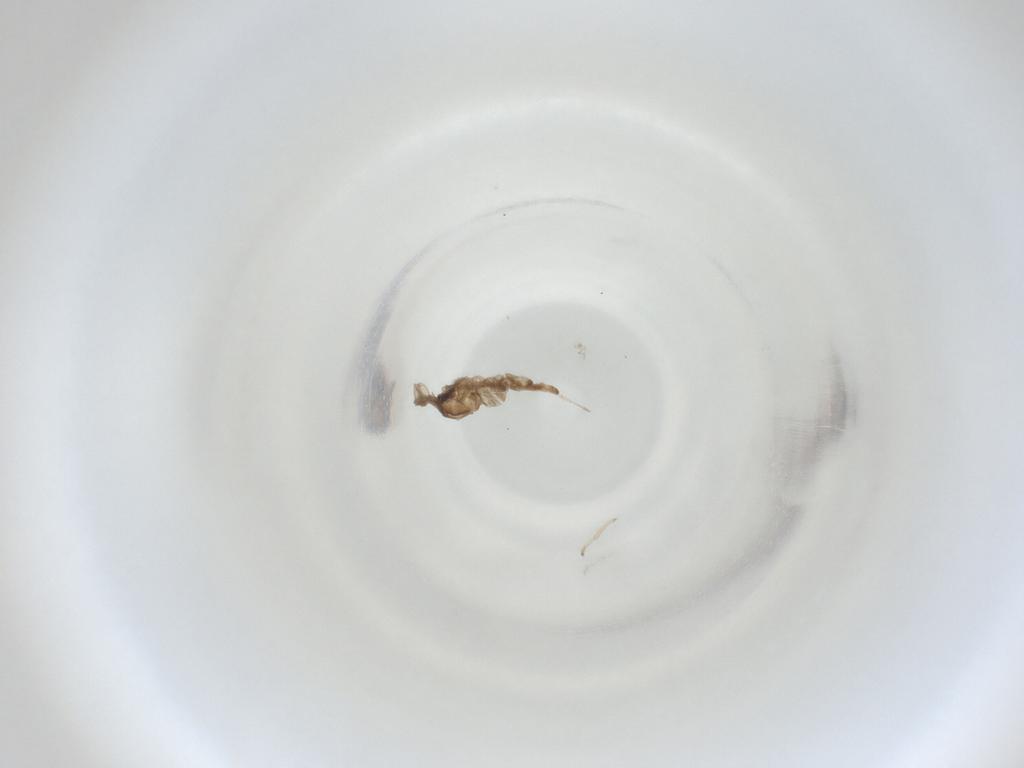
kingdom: Animalia
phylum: Arthropoda
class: Insecta
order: Diptera
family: Cecidomyiidae
